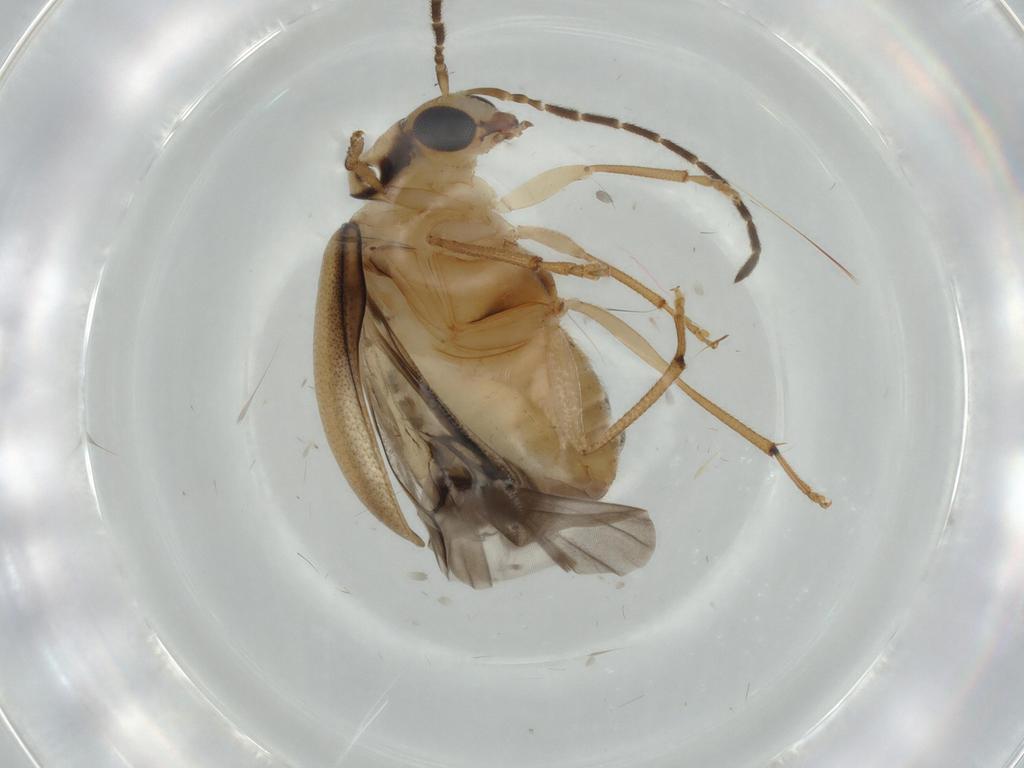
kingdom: Animalia
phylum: Arthropoda
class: Insecta
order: Coleoptera
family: Chrysomelidae
